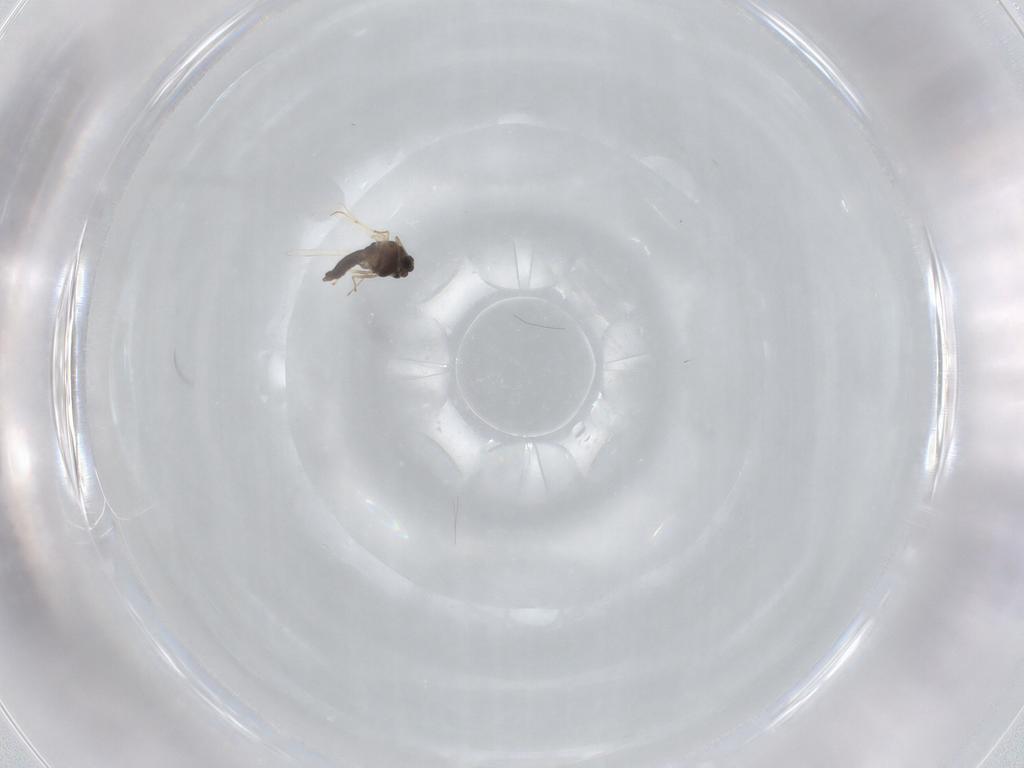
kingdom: Animalia
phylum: Arthropoda
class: Insecta
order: Diptera
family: Chironomidae
